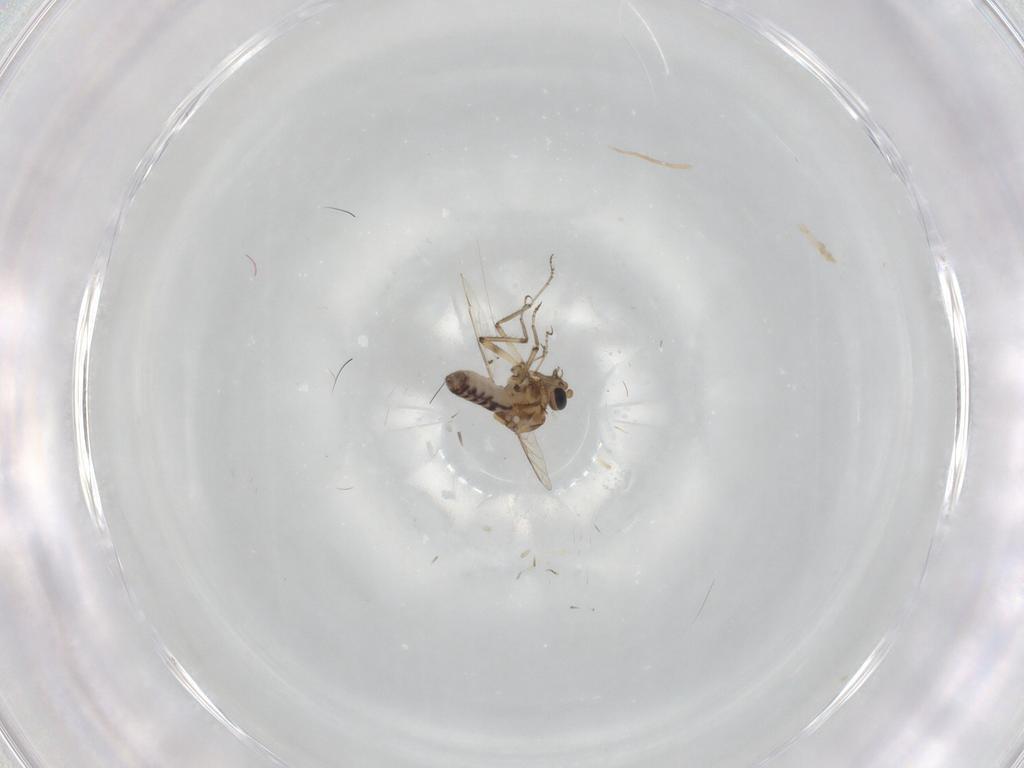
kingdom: Animalia
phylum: Arthropoda
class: Insecta
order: Diptera
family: Ceratopogonidae
